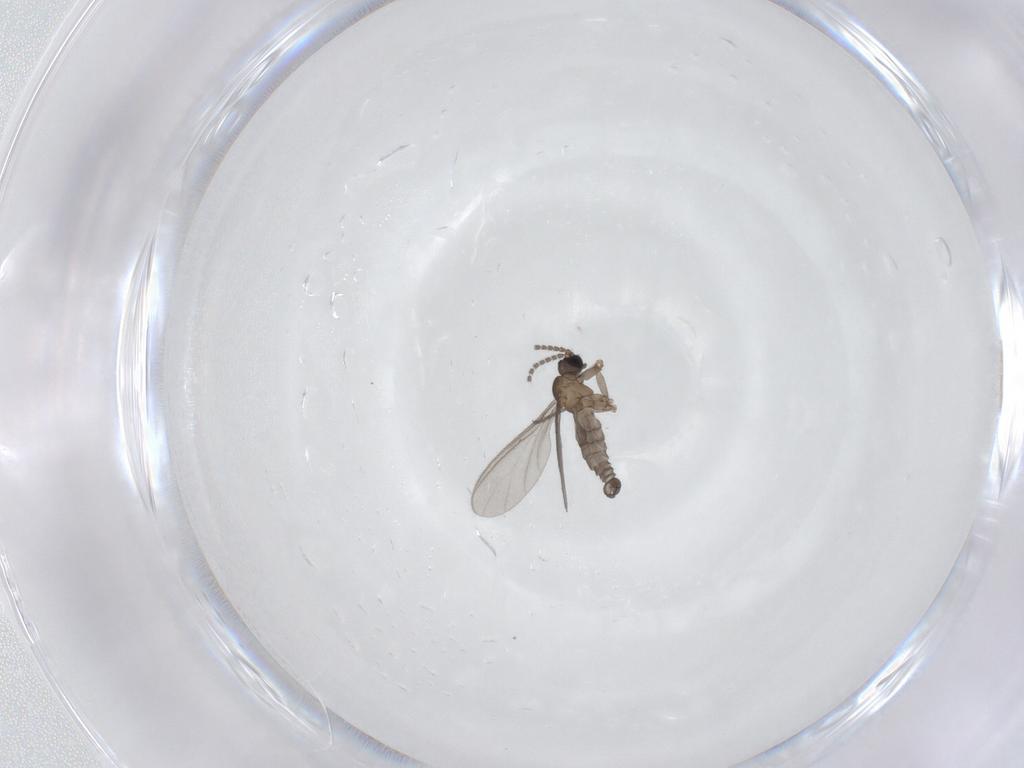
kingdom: Animalia
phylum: Arthropoda
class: Insecta
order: Diptera
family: Sciaridae
